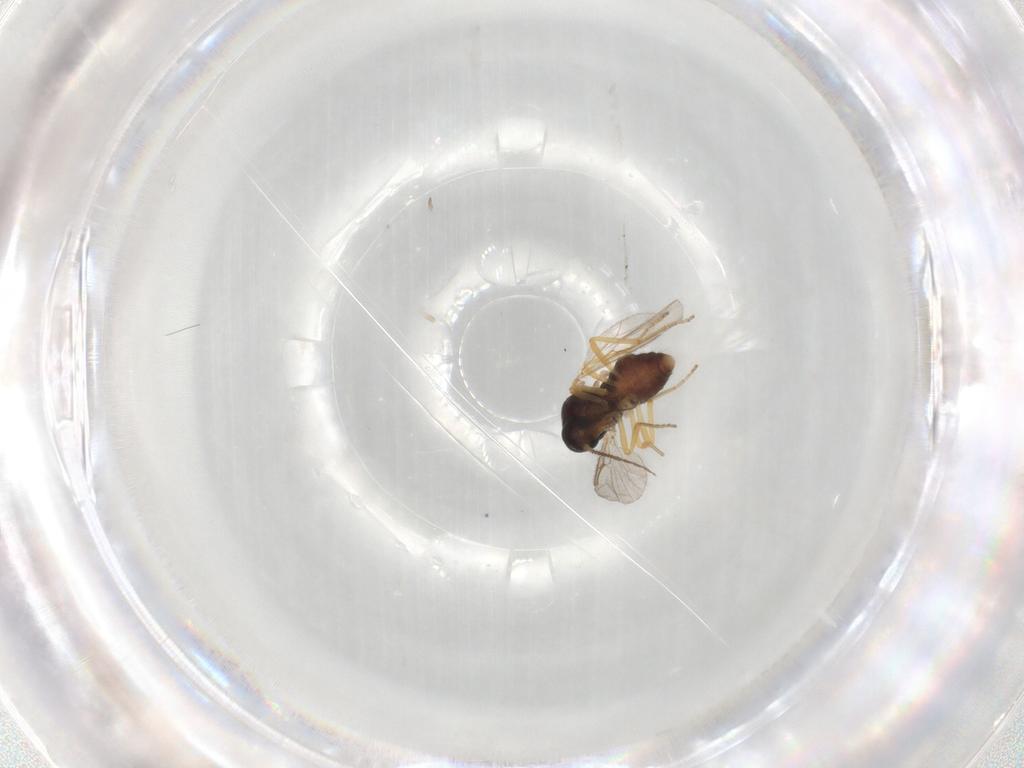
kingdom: Animalia
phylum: Arthropoda
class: Insecta
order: Diptera
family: Ceratopogonidae
